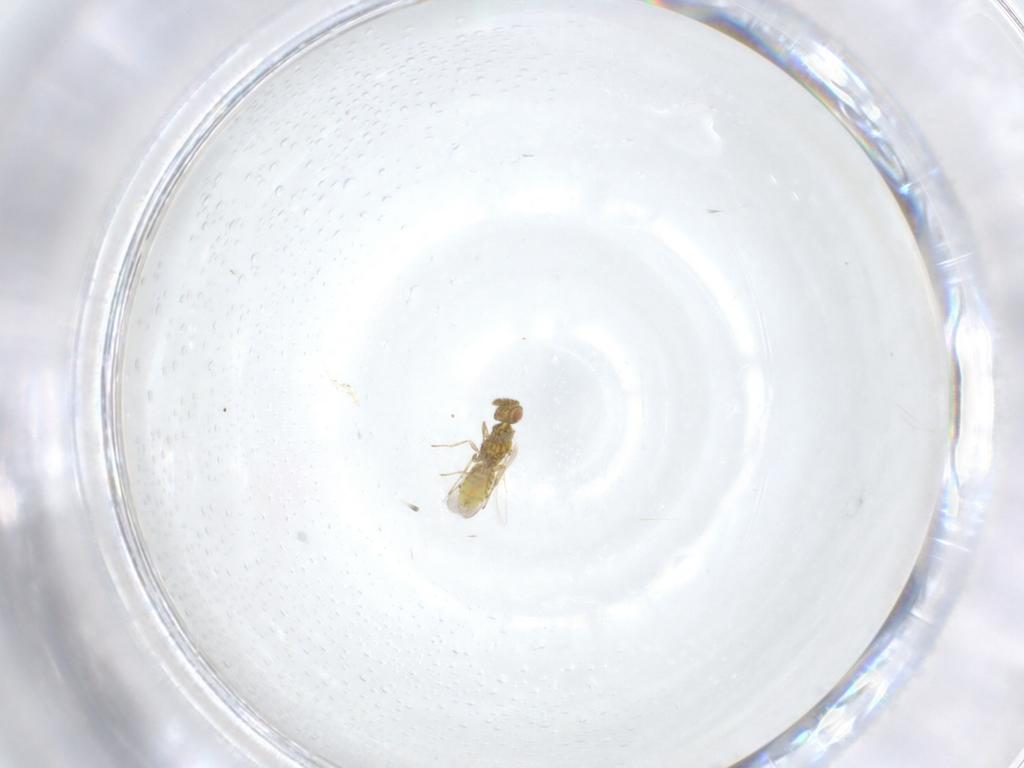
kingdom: Animalia
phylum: Arthropoda
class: Insecta
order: Hymenoptera
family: Eulophidae
